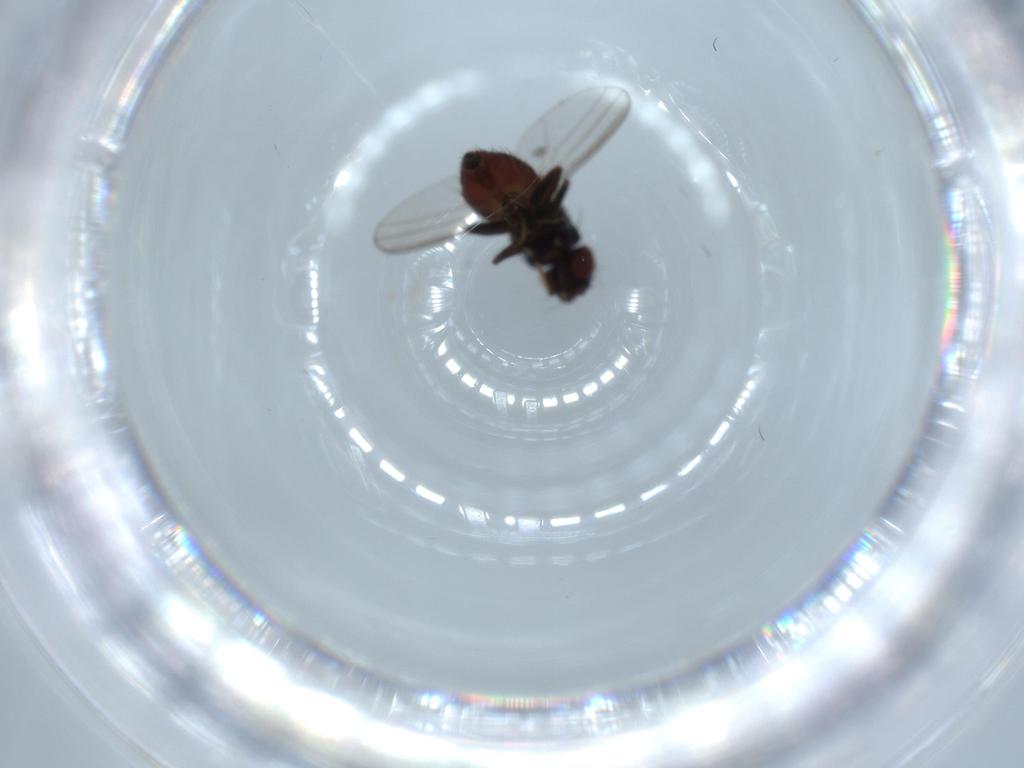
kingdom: Animalia
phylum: Arthropoda
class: Insecta
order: Diptera
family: Milichiidae
